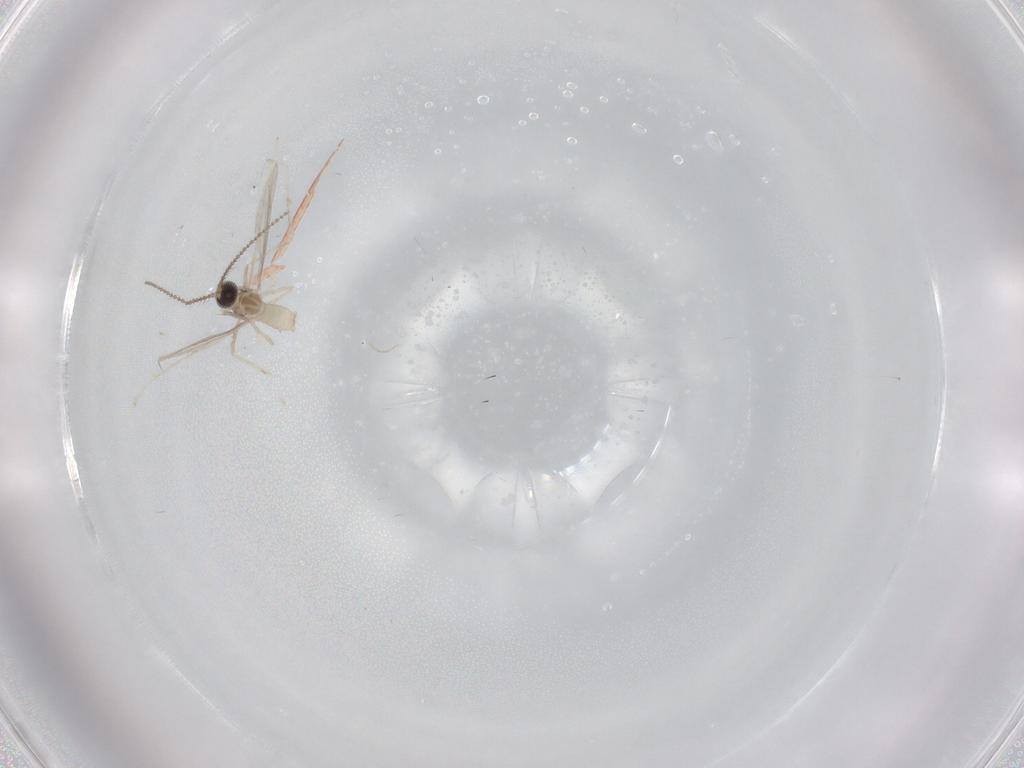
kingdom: Animalia
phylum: Arthropoda
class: Insecta
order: Diptera
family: Cecidomyiidae
